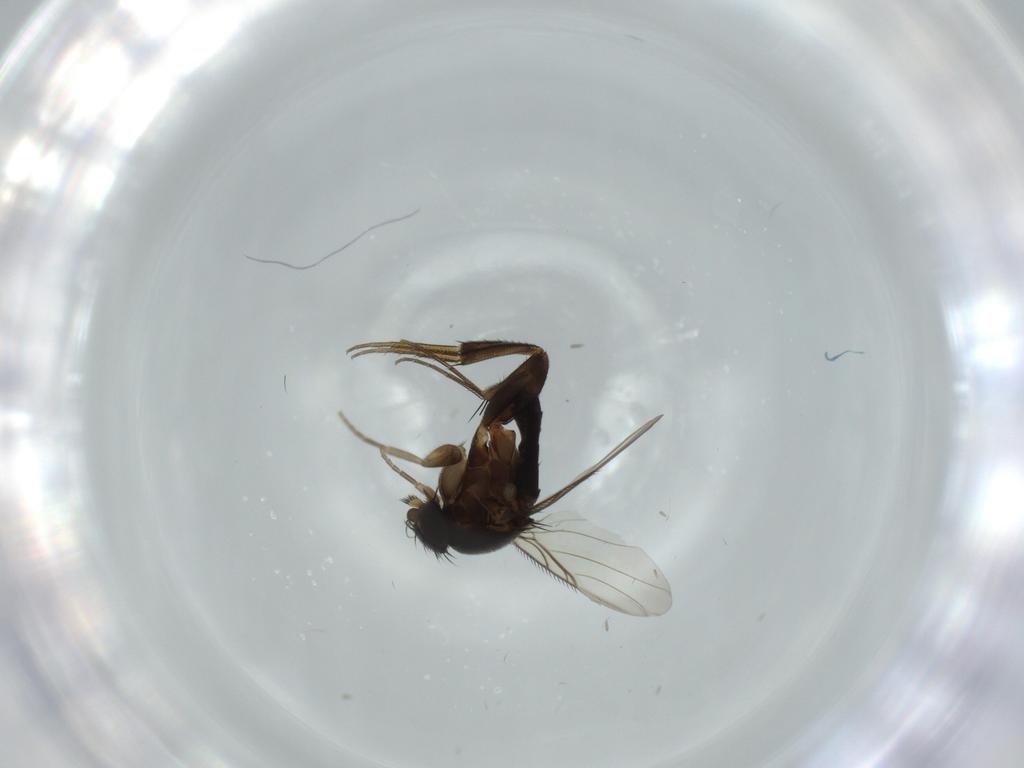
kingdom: Animalia
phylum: Arthropoda
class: Insecta
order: Diptera
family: Phoridae
